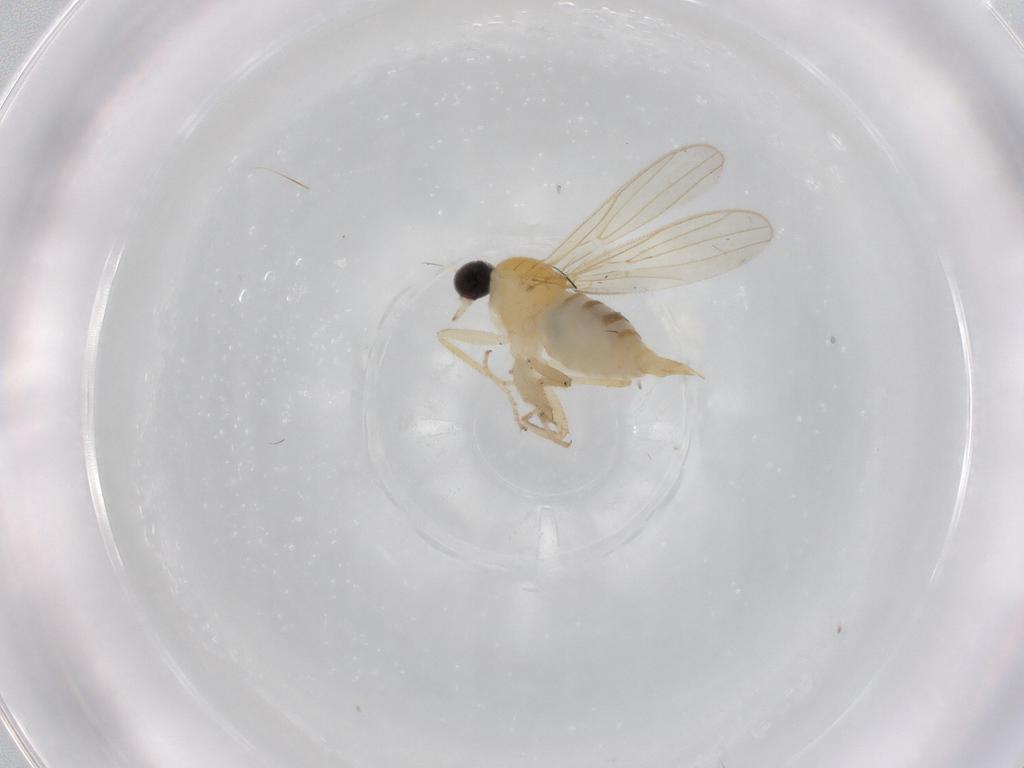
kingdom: Animalia
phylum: Arthropoda
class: Insecta
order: Diptera
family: Sciaridae
